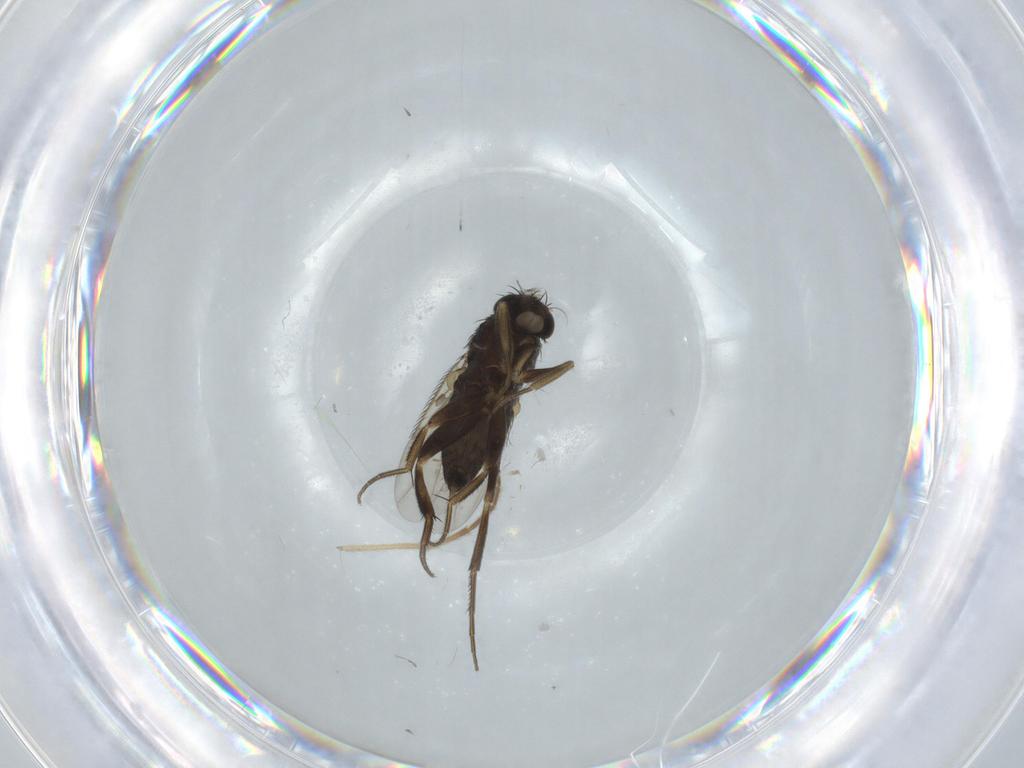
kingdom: Animalia
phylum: Arthropoda
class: Insecta
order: Diptera
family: Phoridae
